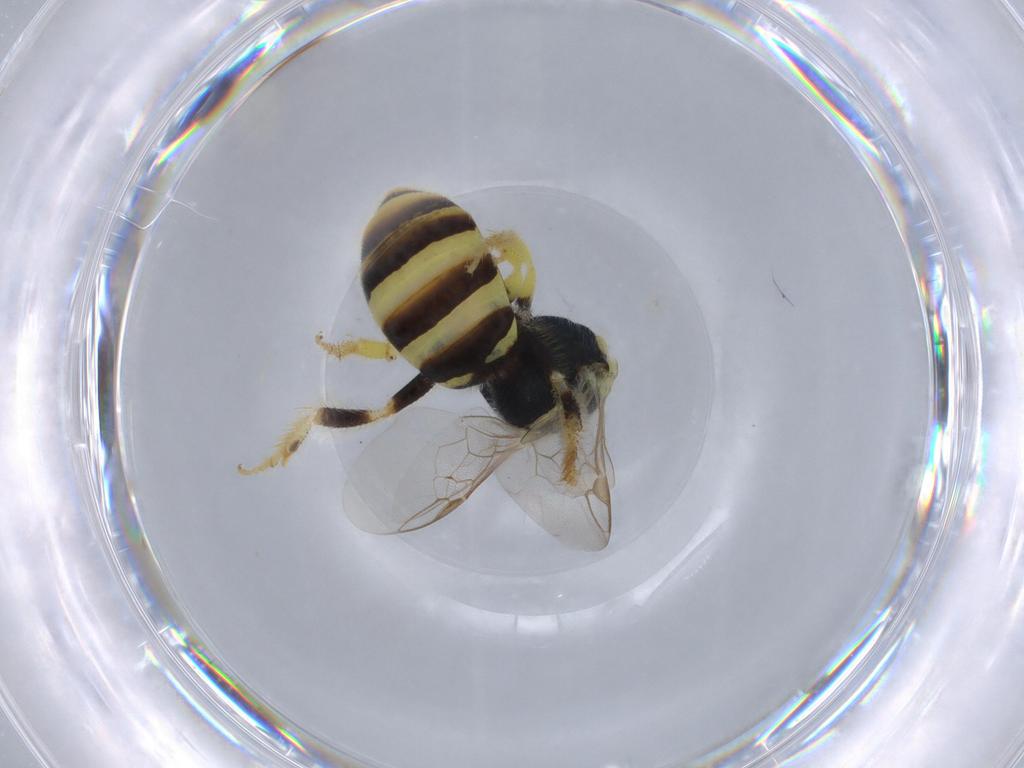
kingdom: Animalia
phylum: Arthropoda
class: Insecta
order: Hymenoptera
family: Halictidae
